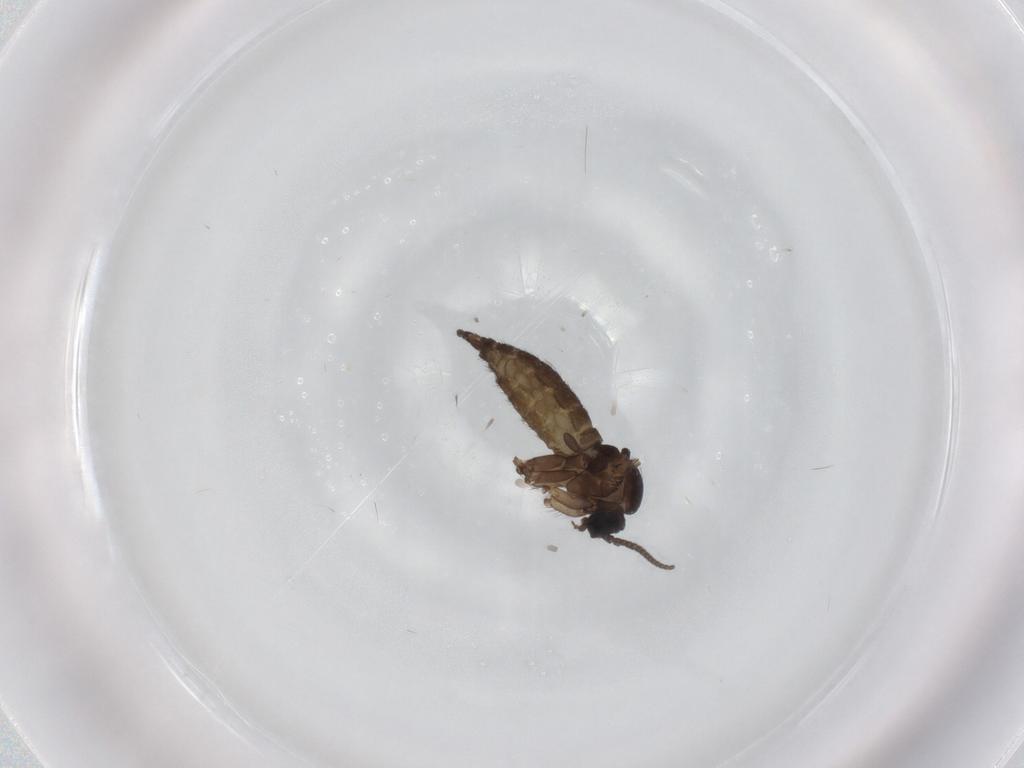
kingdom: Animalia
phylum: Arthropoda
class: Insecta
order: Diptera
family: Sciaridae
